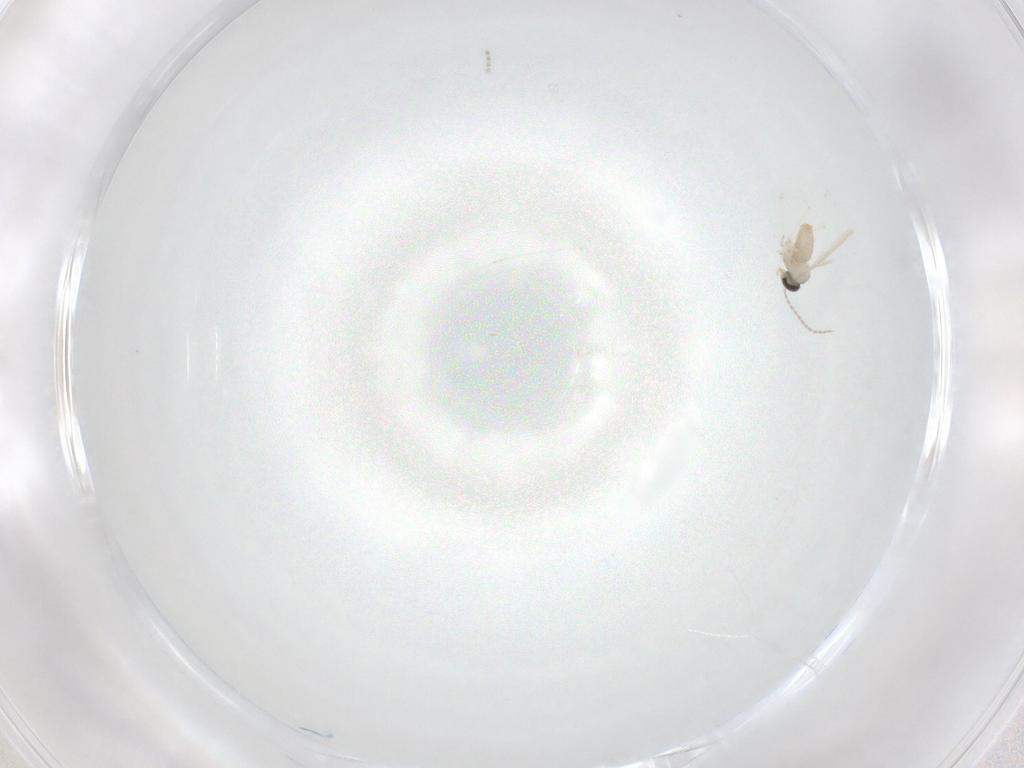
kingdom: Animalia
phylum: Arthropoda
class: Insecta
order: Diptera
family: Cecidomyiidae
